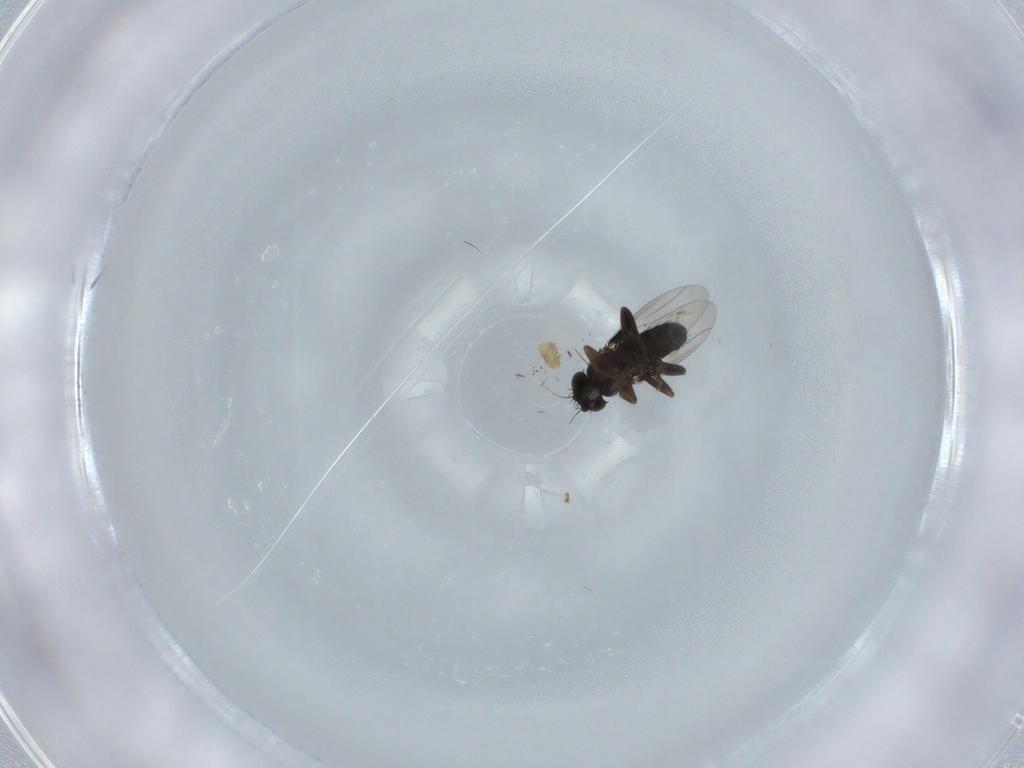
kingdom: Animalia
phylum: Arthropoda
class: Insecta
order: Diptera
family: Phoridae
